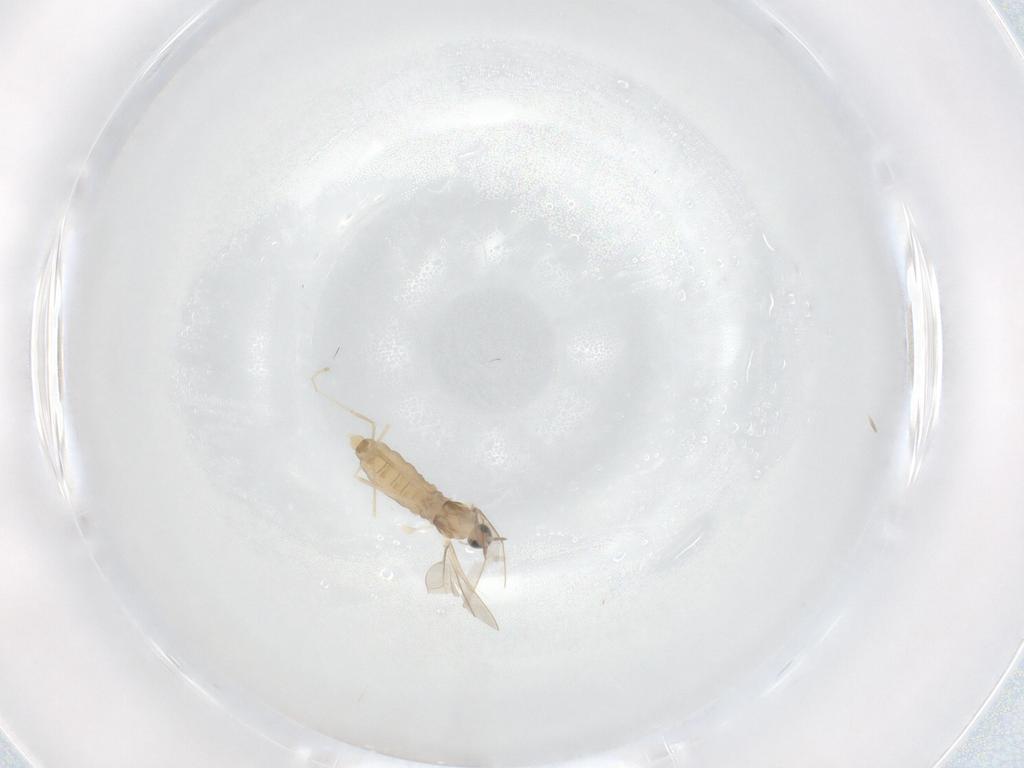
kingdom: Animalia
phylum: Arthropoda
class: Insecta
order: Diptera
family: Cecidomyiidae
